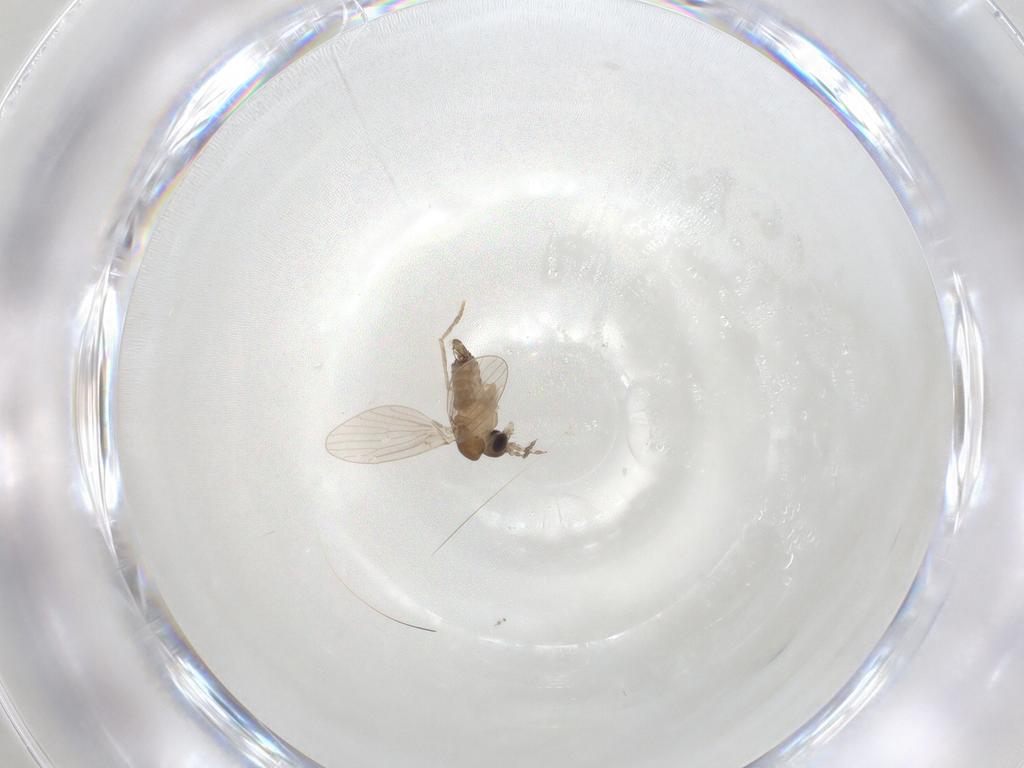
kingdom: Animalia
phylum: Arthropoda
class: Insecta
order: Diptera
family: Cecidomyiidae
